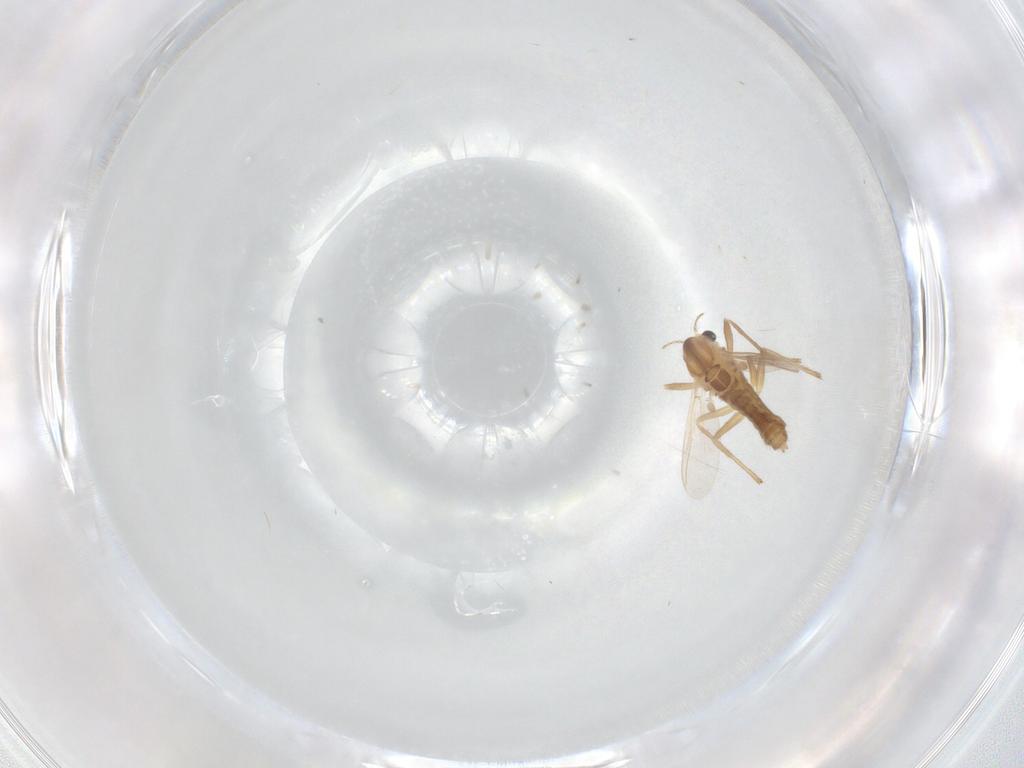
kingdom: Animalia
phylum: Arthropoda
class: Insecta
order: Diptera
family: Chironomidae
